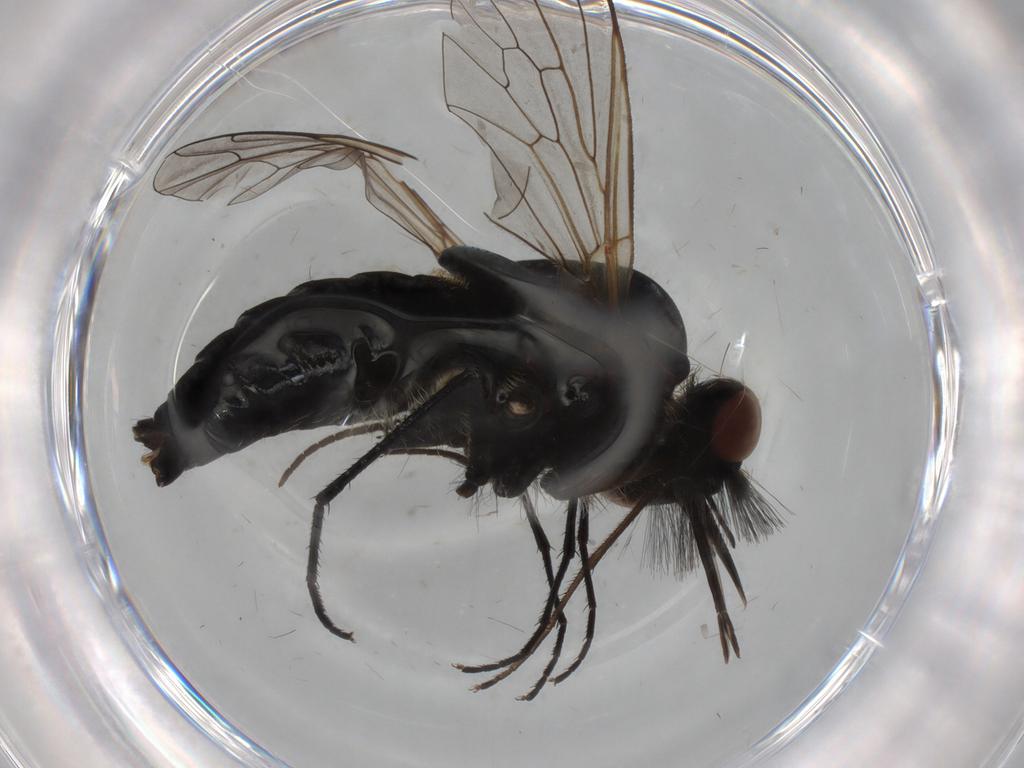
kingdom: Animalia
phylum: Arthropoda
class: Insecta
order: Diptera
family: Bombyliidae
